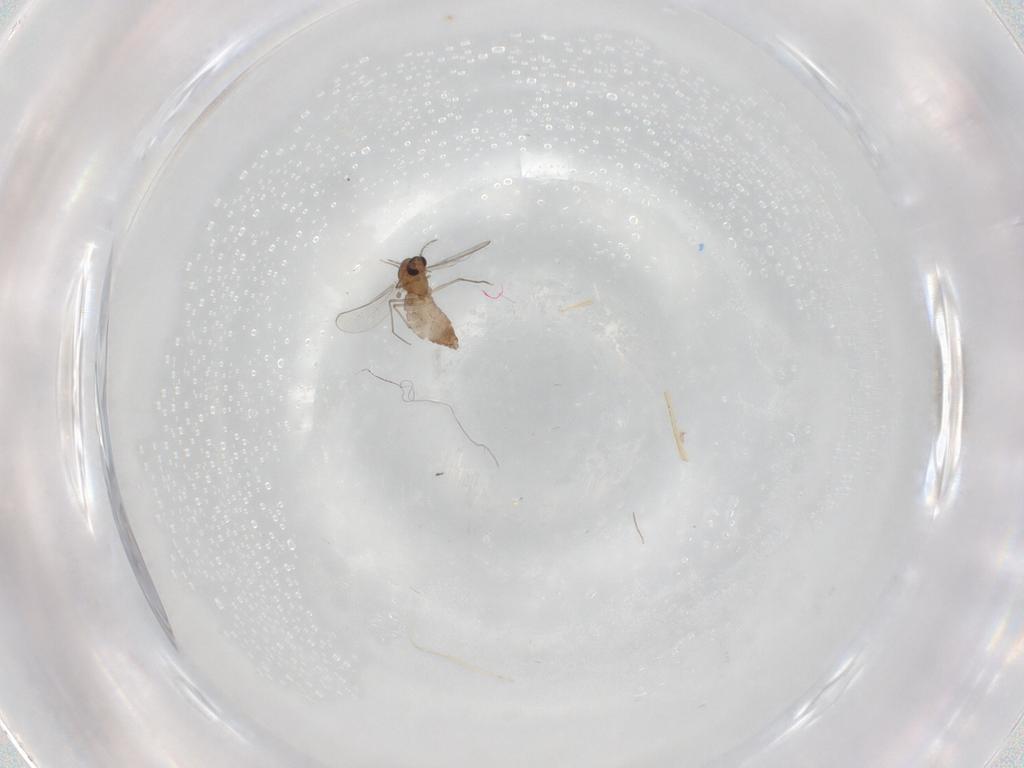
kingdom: Animalia
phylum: Arthropoda
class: Insecta
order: Diptera
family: Chironomidae
